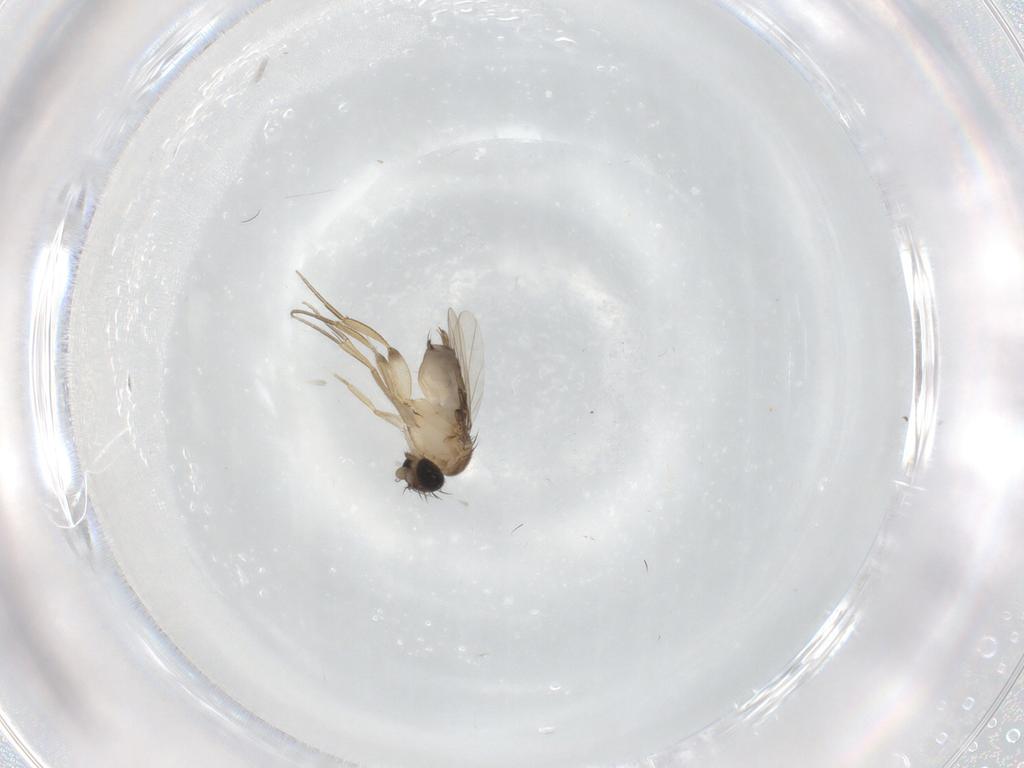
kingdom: Animalia
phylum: Arthropoda
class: Insecta
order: Diptera
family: Phoridae
